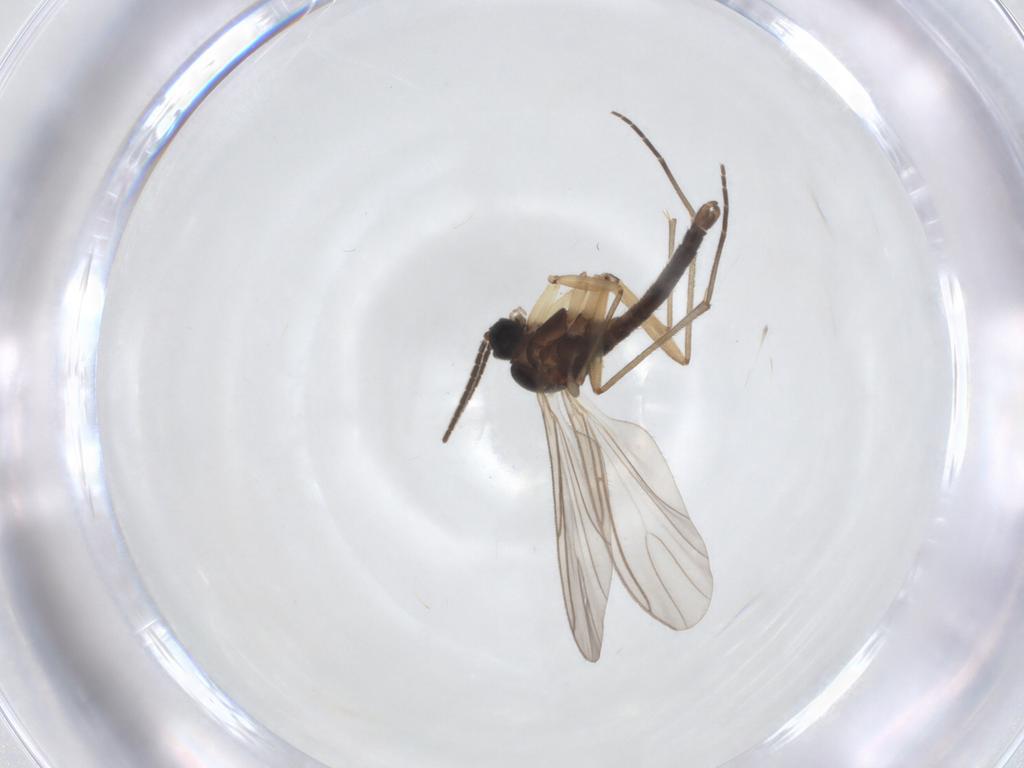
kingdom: Animalia
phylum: Arthropoda
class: Insecta
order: Diptera
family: Sciaridae
